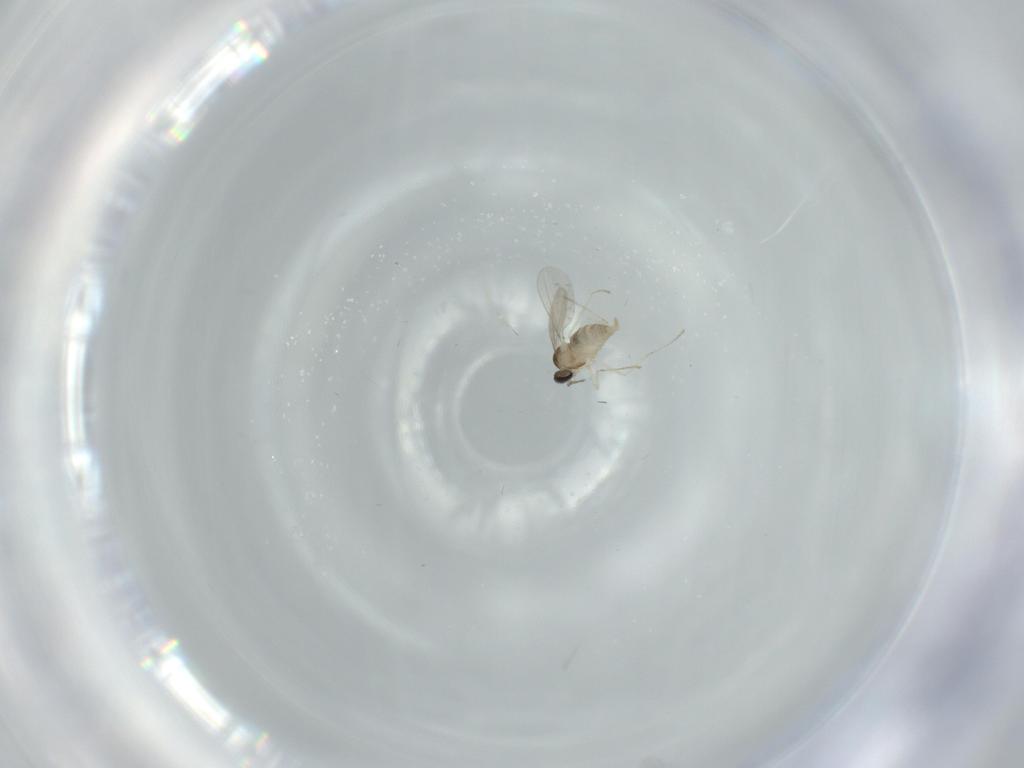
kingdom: Animalia
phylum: Arthropoda
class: Insecta
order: Diptera
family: Cecidomyiidae
